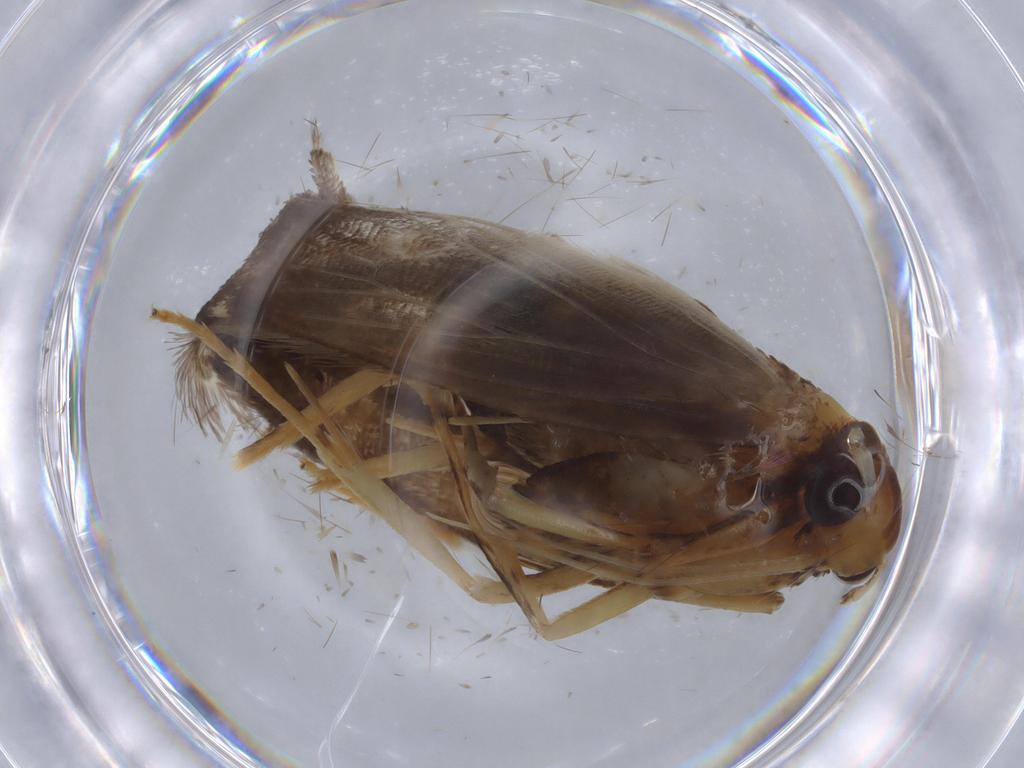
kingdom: Animalia
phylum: Arthropoda
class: Insecta
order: Lepidoptera
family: Lecithoceridae
